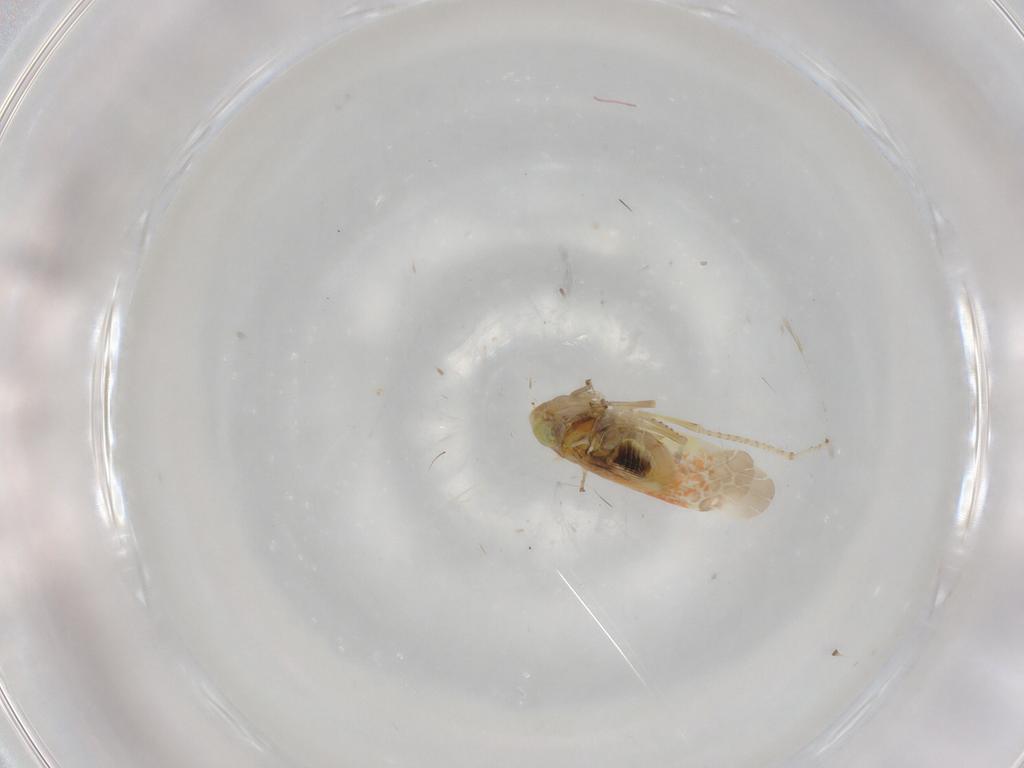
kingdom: Animalia
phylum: Arthropoda
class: Insecta
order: Hemiptera
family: Cicadellidae
